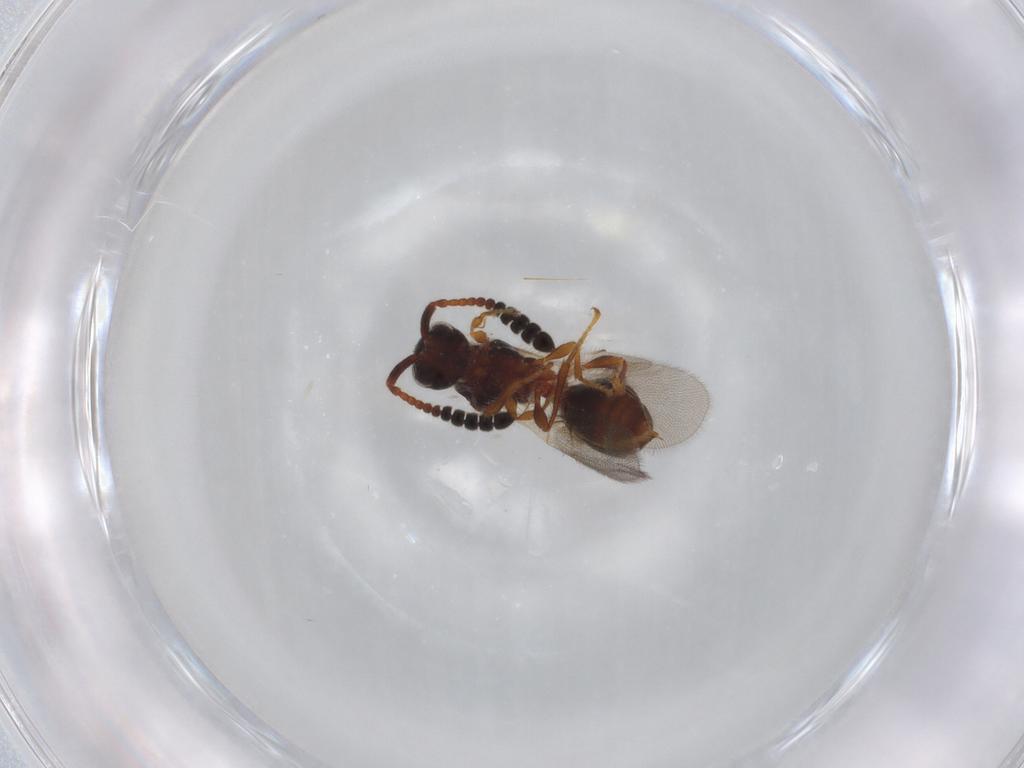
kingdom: Animalia
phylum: Arthropoda
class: Insecta
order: Hymenoptera
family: Diapriidae
